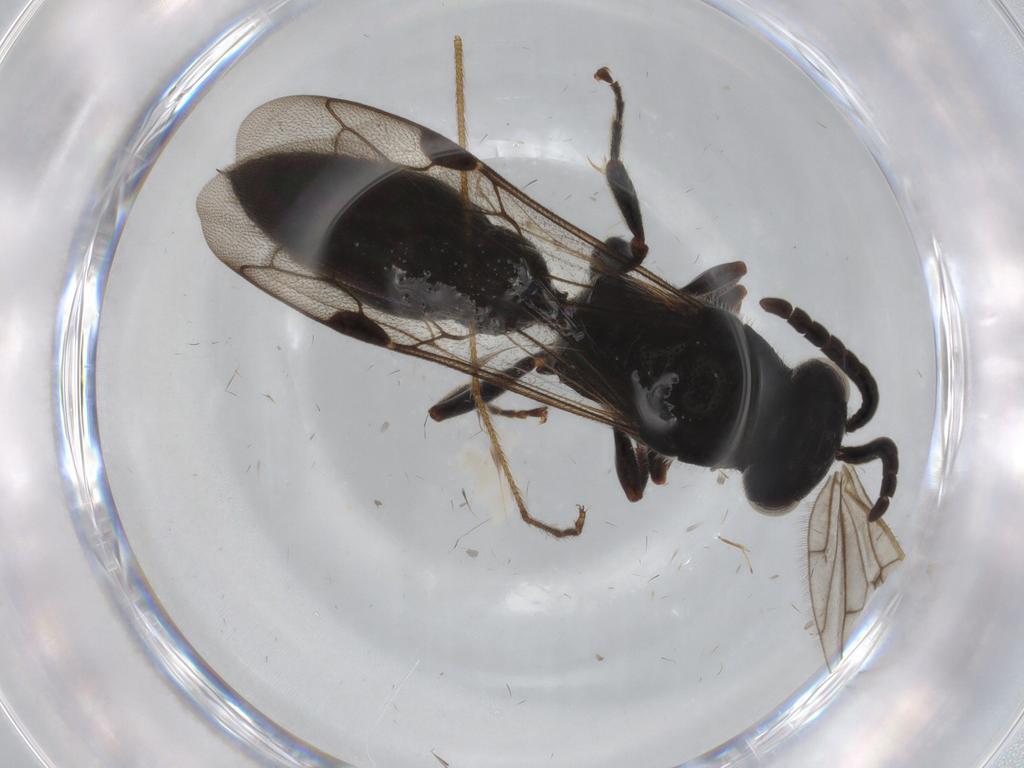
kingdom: Animalia
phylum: Arthropoda
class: Insecta
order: Hymenoptera
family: Tiphiidae
